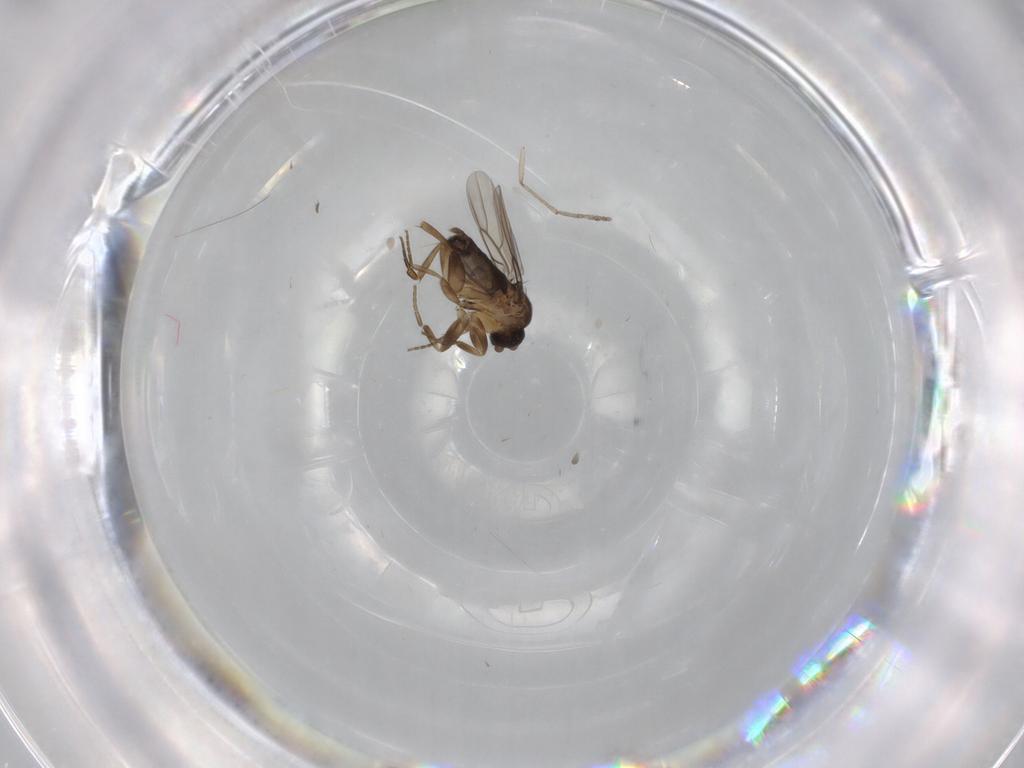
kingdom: Animalia
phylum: Arthropoda
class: Insecta
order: Diptera
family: Psychodidae
